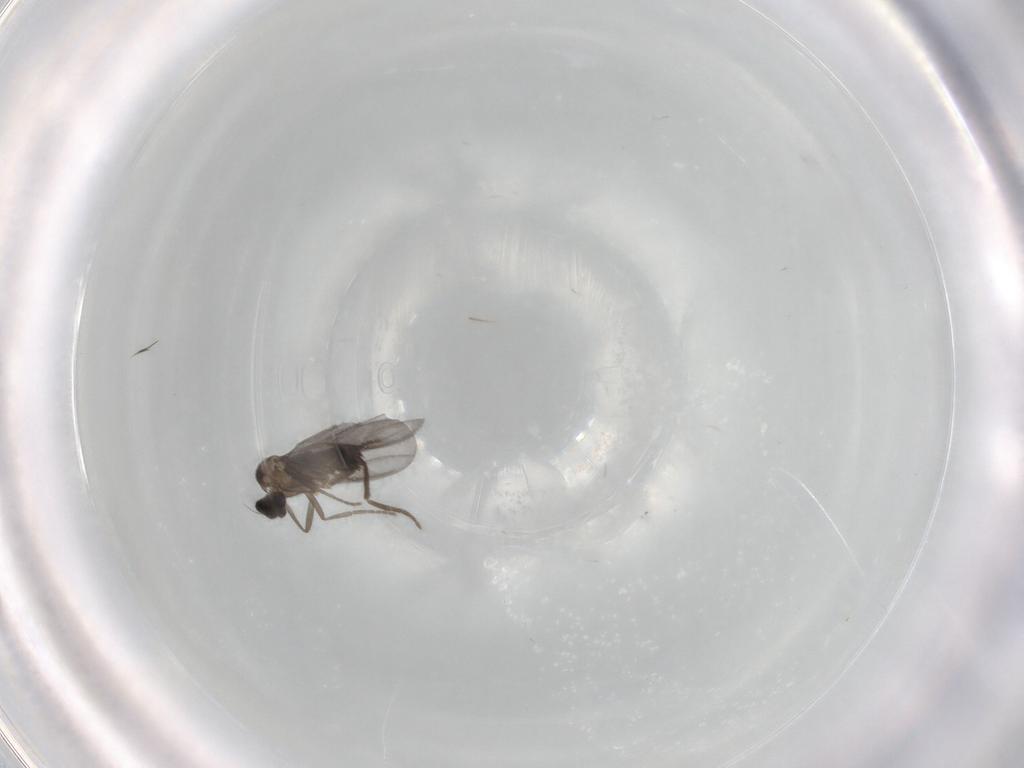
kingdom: Animalia
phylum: Arthropoda
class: Insecta
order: Diptera
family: Phoridae
